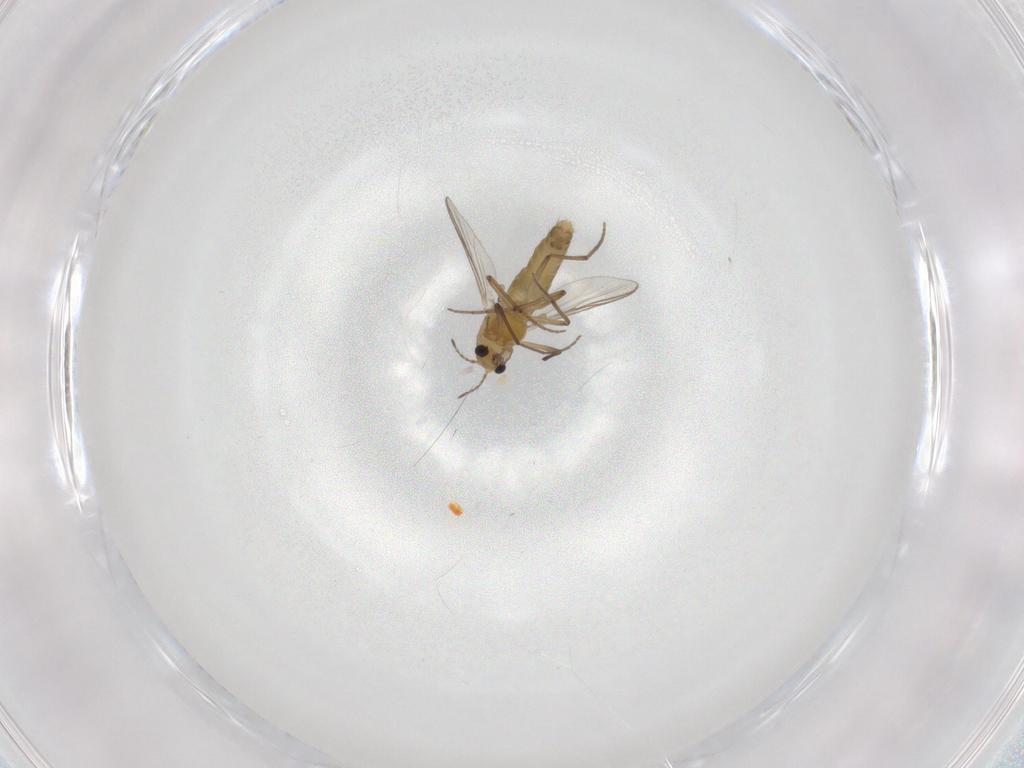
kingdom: Animalia
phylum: Arthropoda
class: Insecta
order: Diptera
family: Chironomidae
